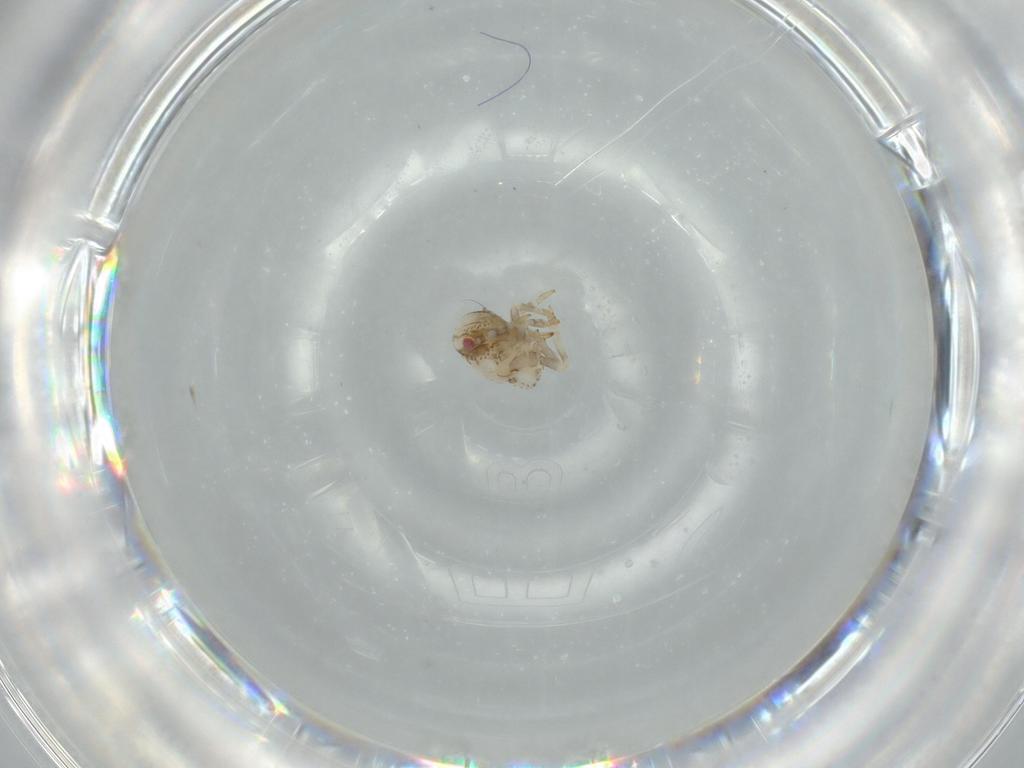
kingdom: Animalia
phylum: Arthropoda
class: Insecta
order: Hemiptera
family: Acanaloniidae
